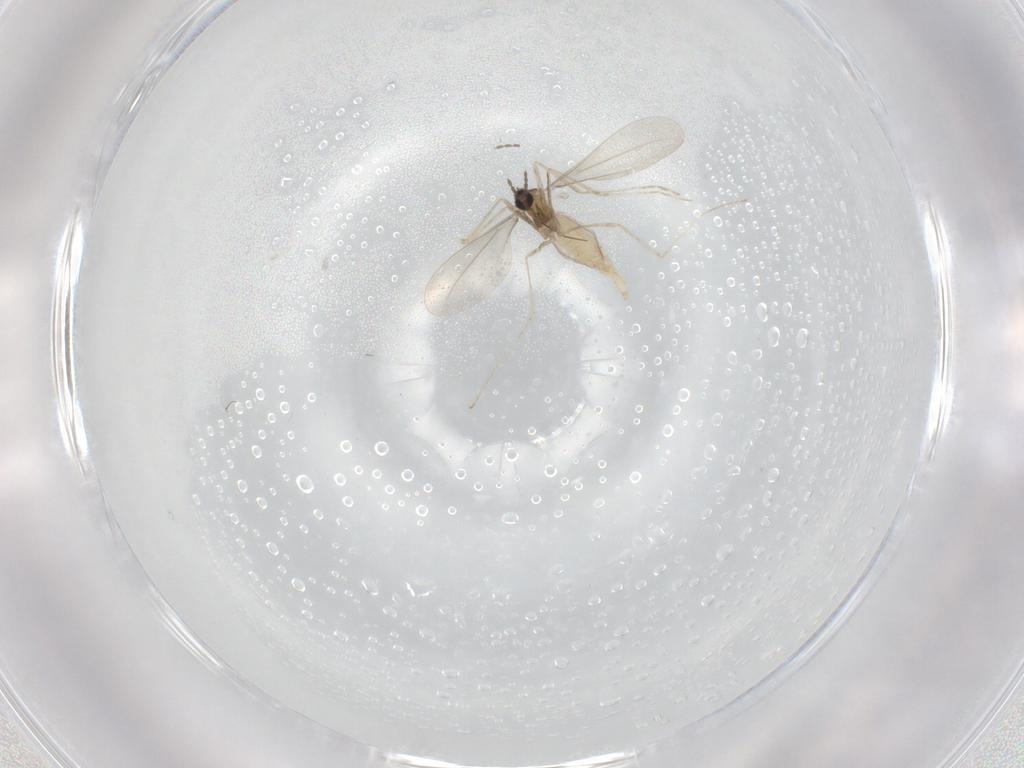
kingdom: Animalia
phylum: Arthropoda
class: Insecta
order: Diptera
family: Cecidomyiidae
